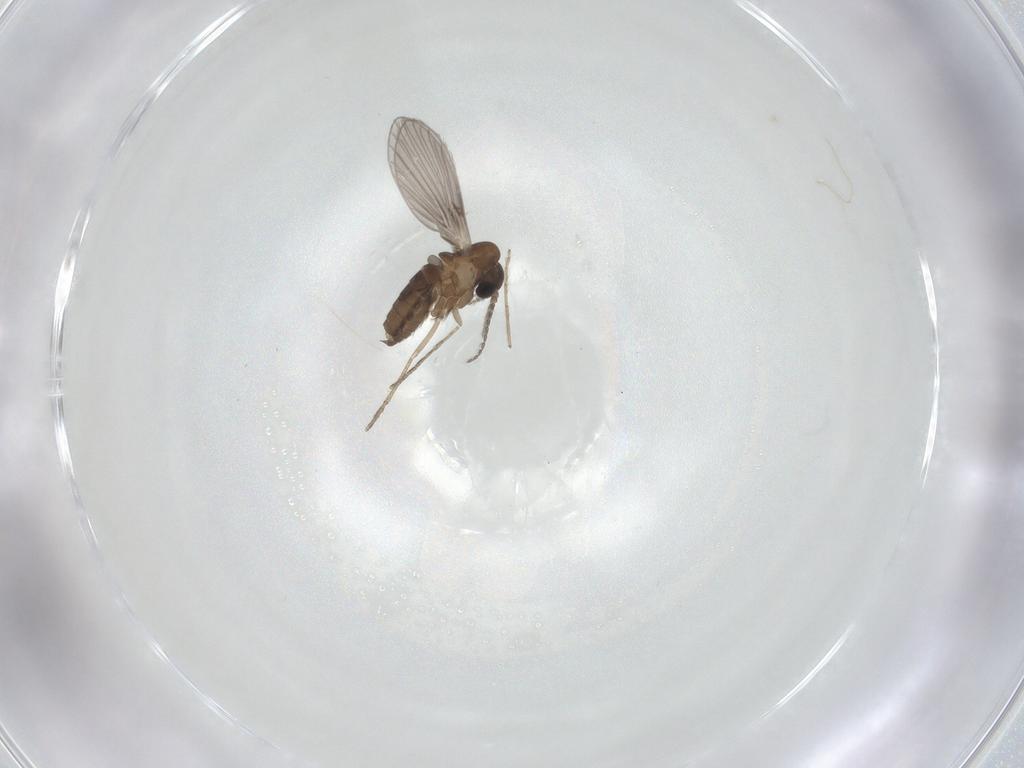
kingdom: Animalia
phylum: Arthropoda
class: Insecta
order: Diptera
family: Chironomidae
